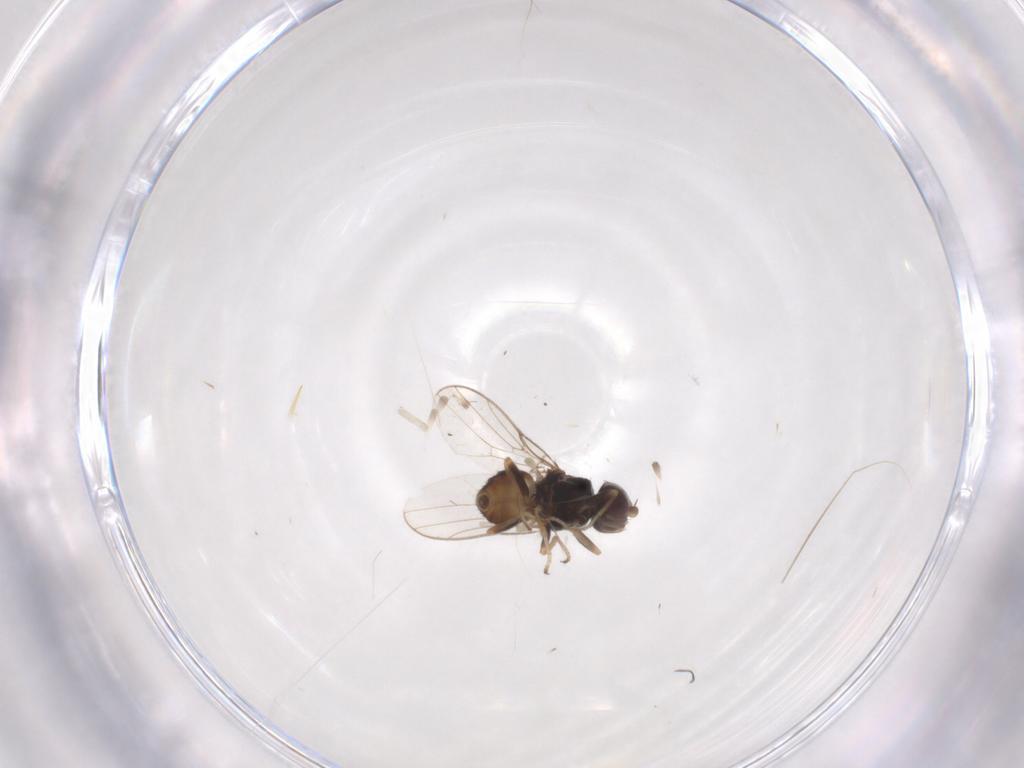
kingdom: Animalia
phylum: Arthropoda
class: Insecta
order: Diptera
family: Chloropidae
